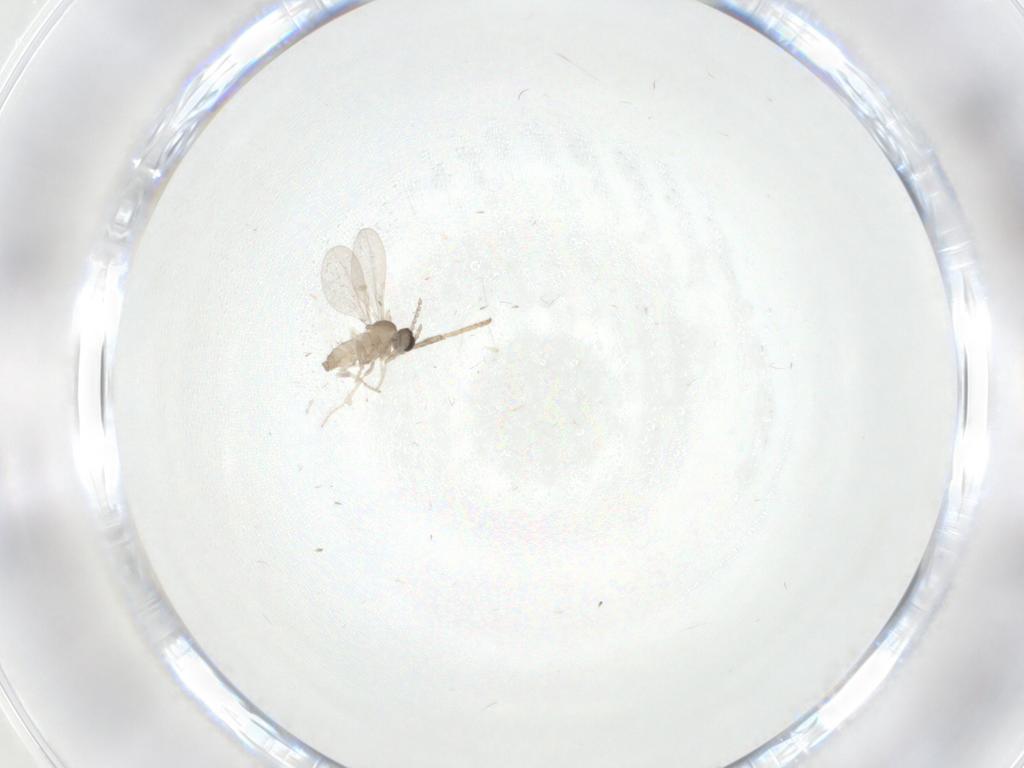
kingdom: Animalia
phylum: Arthropoda
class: Insecta
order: Diptera
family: Cecidomyiidae
